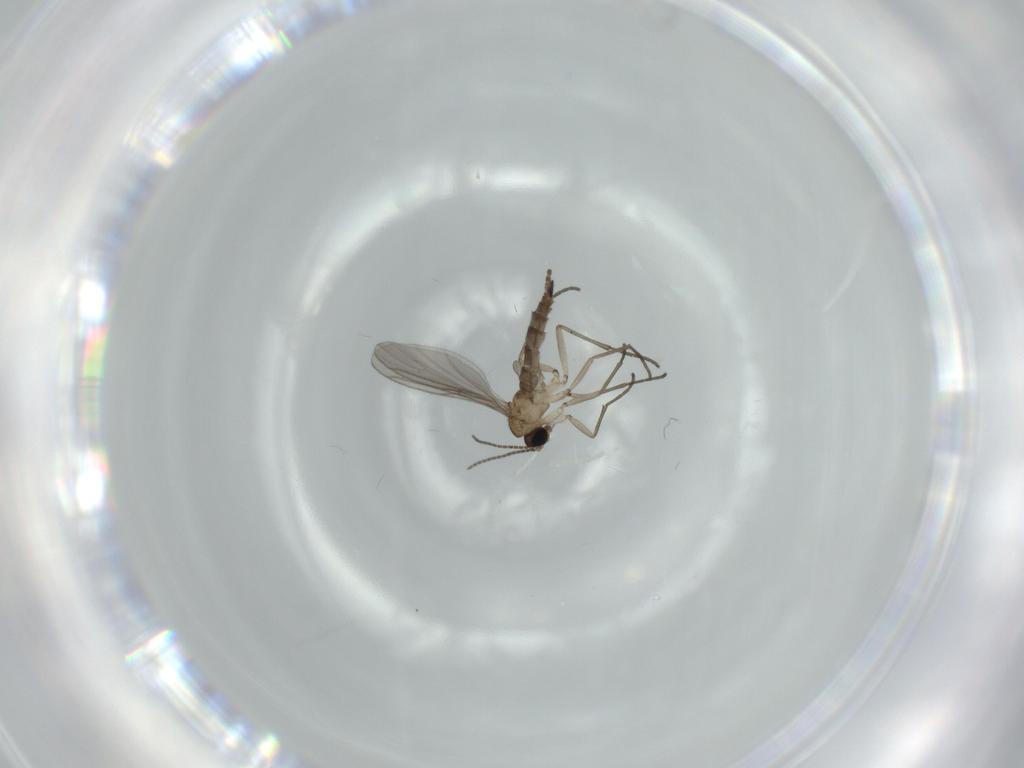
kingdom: Animalia
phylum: Arthropoda
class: Insecta
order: Diptera
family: Sciaridae
